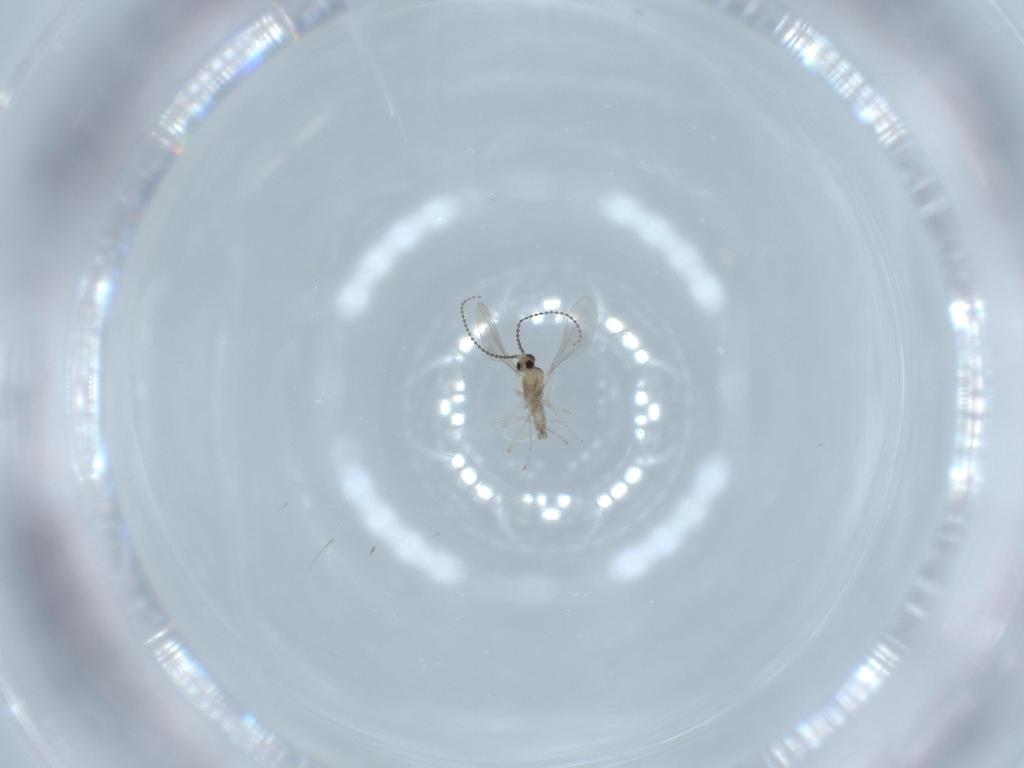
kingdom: Animalia
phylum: Arthropoda
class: Insecta
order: Diptera
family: Cecidomyiidae
